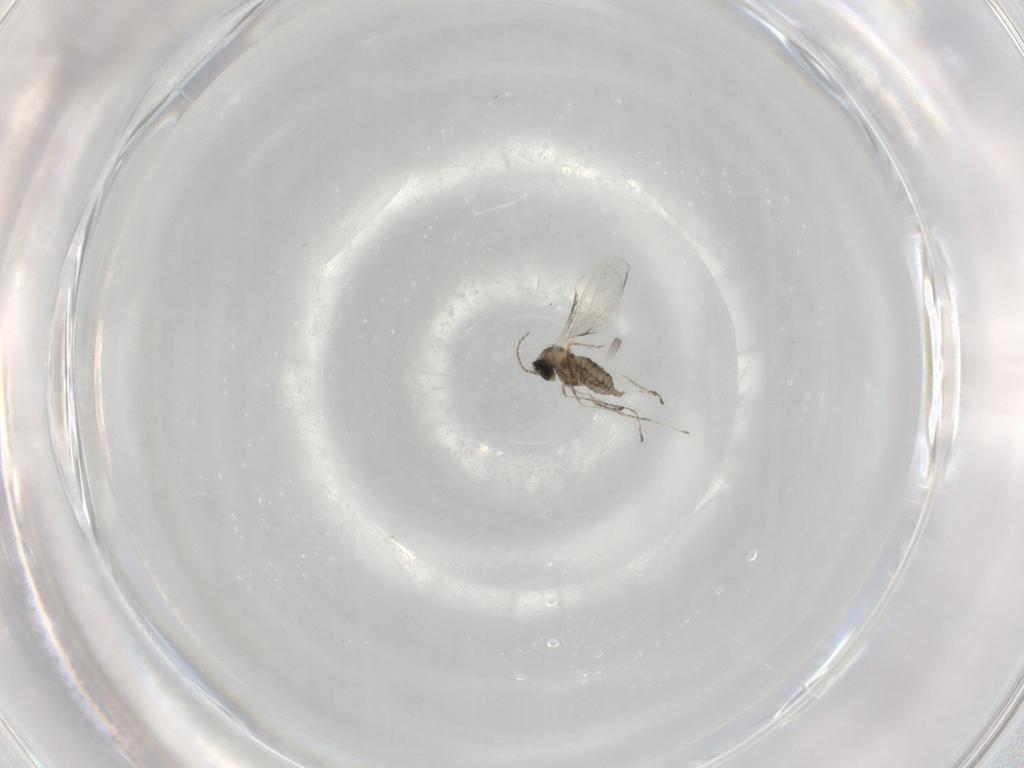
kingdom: Animalia
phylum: Arthropoda
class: Insecta
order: Diptera
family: Cecidomyiidae
